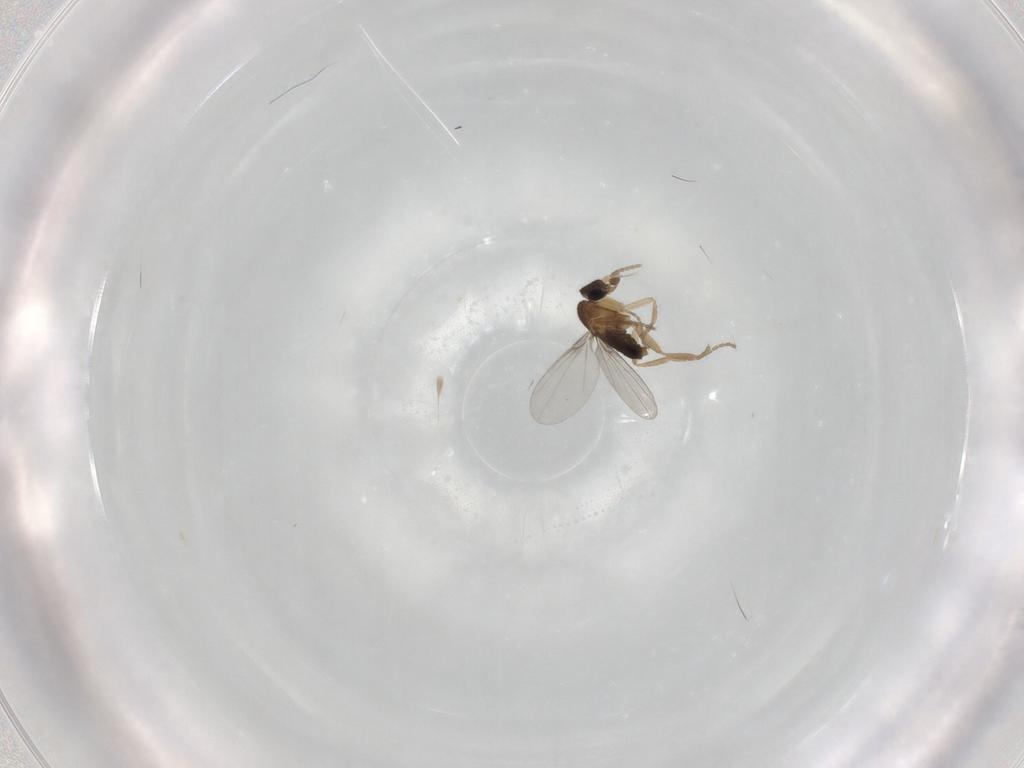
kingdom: Animalia
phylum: Arthropoda
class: Insecta
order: Diptera
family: Phoridae
